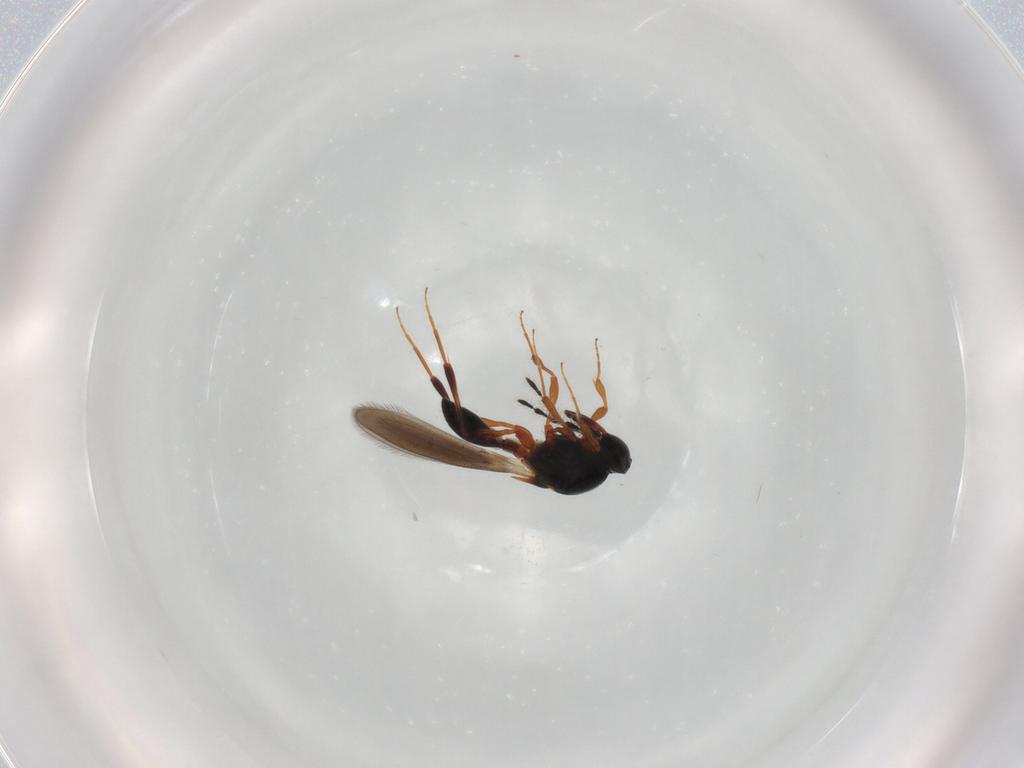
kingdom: Animalia
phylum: Arthropoda
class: Insecta
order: Hymenoptera
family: Platygastridae
